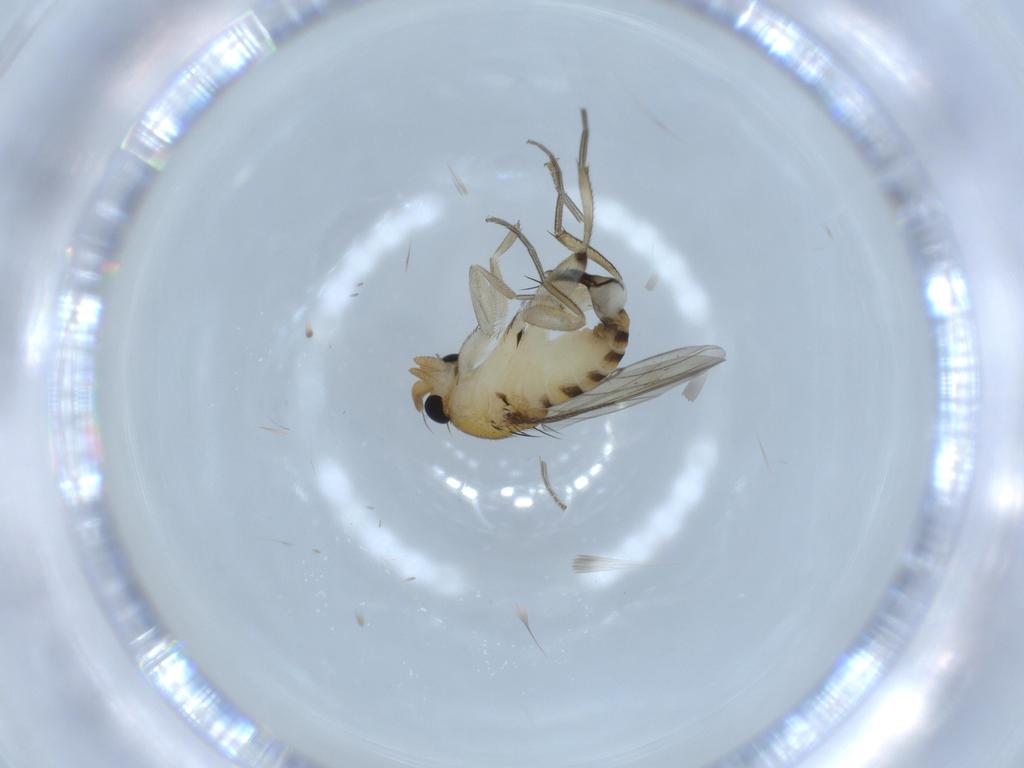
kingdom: Animalia
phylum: Arthropoda
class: Insecta
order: Diptera
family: Phoridae
